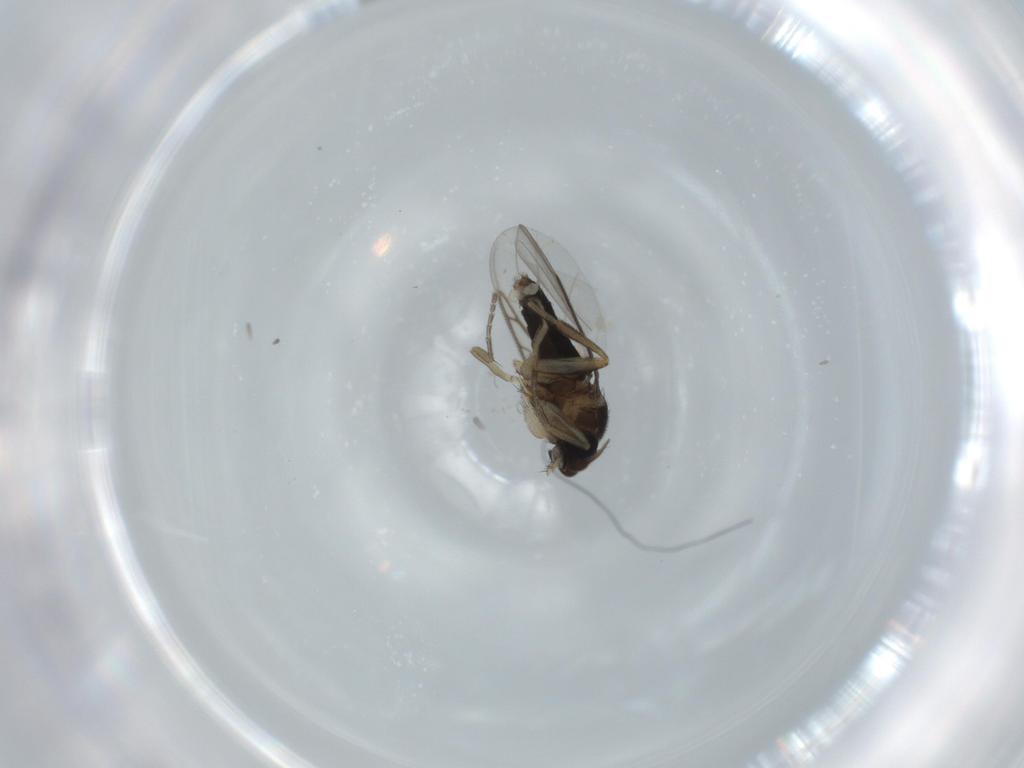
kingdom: Animalia
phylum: Arthropoda
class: Insecta
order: Diptera
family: Phoridae
